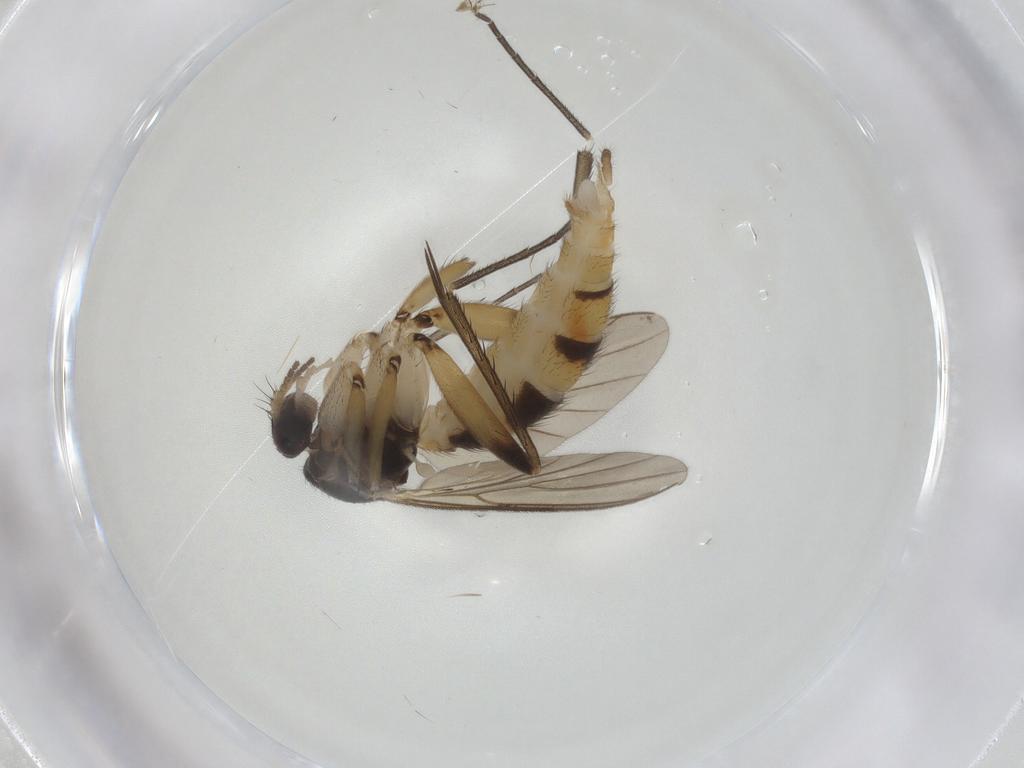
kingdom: Animalia
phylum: Arthropoda
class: Insecta
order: Diptera
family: Mycetophilidae
